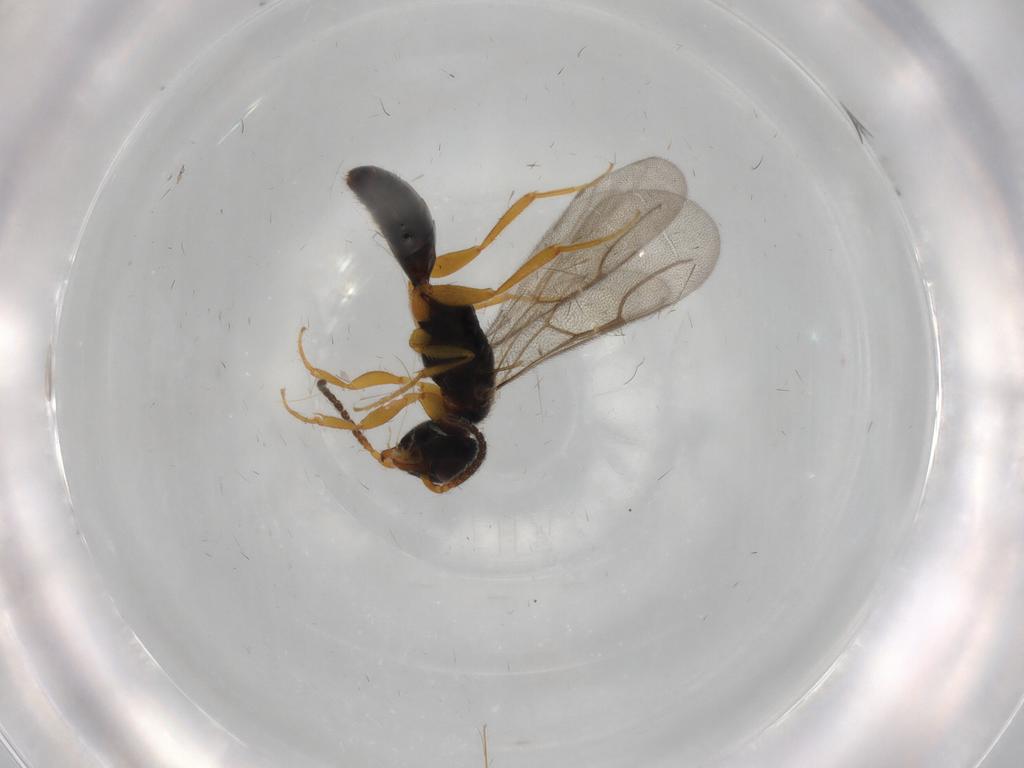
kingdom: Animalia
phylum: Arthropoda
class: Insecta
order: Hymenoptera
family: Bethylidae
